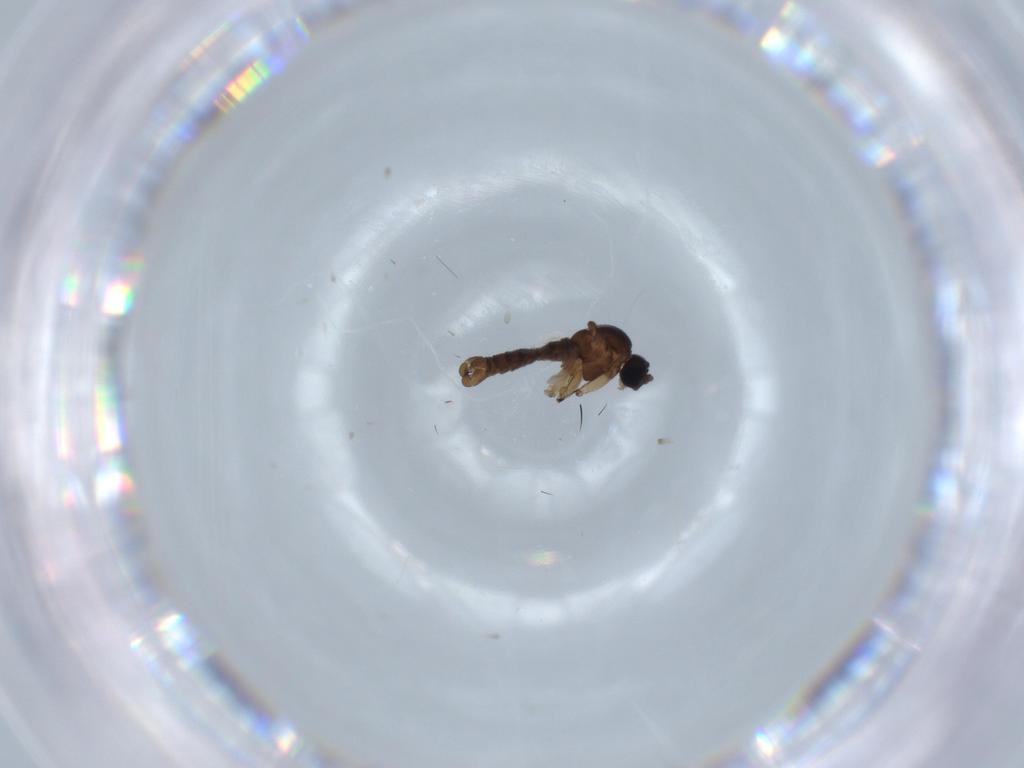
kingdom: Animalia
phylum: Arthropoda
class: Insecta
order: Diptera
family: Sciaridae
